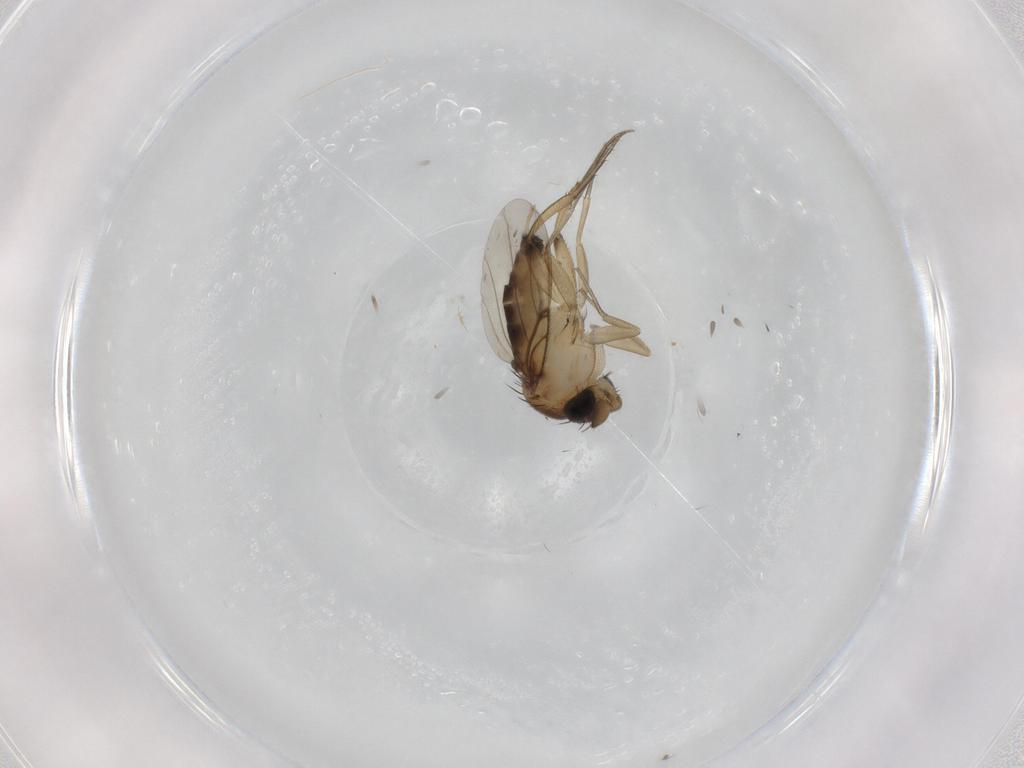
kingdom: Animalia
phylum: Arthropoda
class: Insecta
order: Diptera
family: Phoridae
